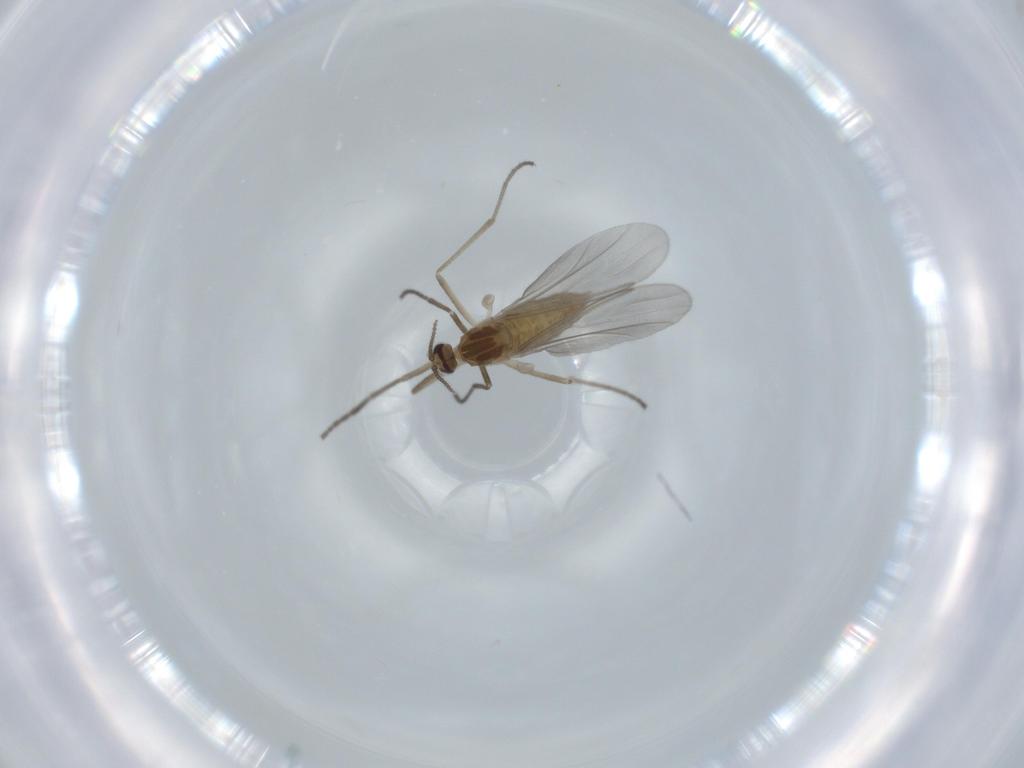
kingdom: Animalia
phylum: Arthropoda
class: Insecta
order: Diptera
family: Cecidomyiidae
